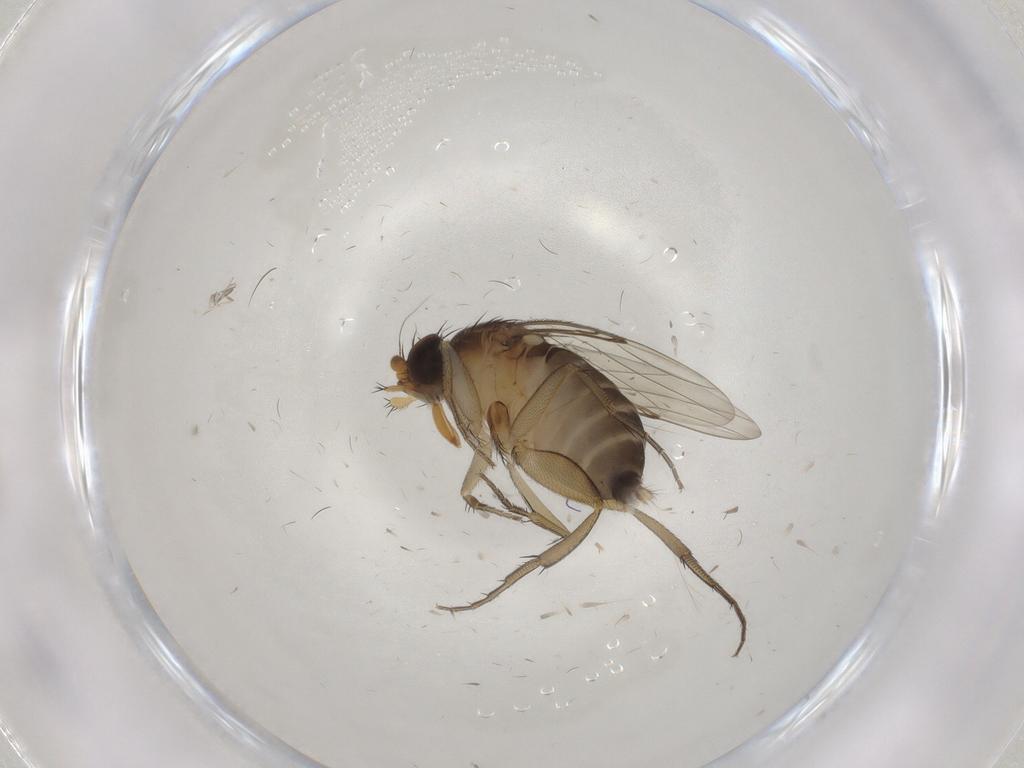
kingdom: Animalia
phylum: Arthropoda
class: Insecta
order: Diptera
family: Phoridae
